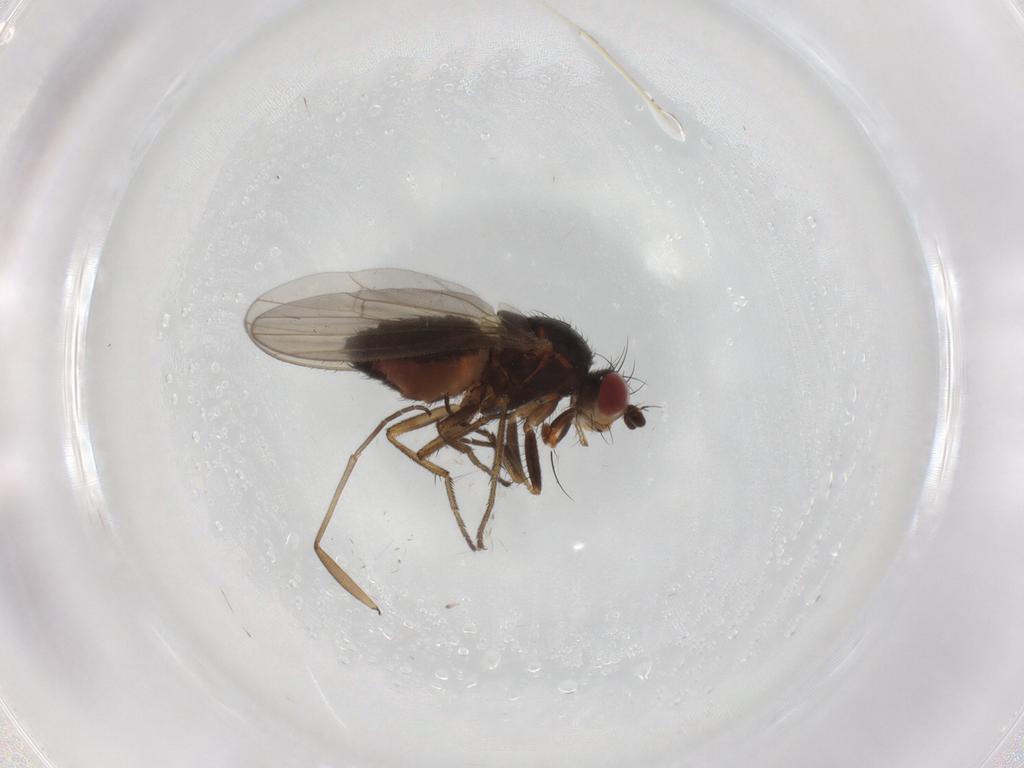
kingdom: Animalia
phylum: Arthropoda
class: Insecta
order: Diptera
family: Heleomyzidae
